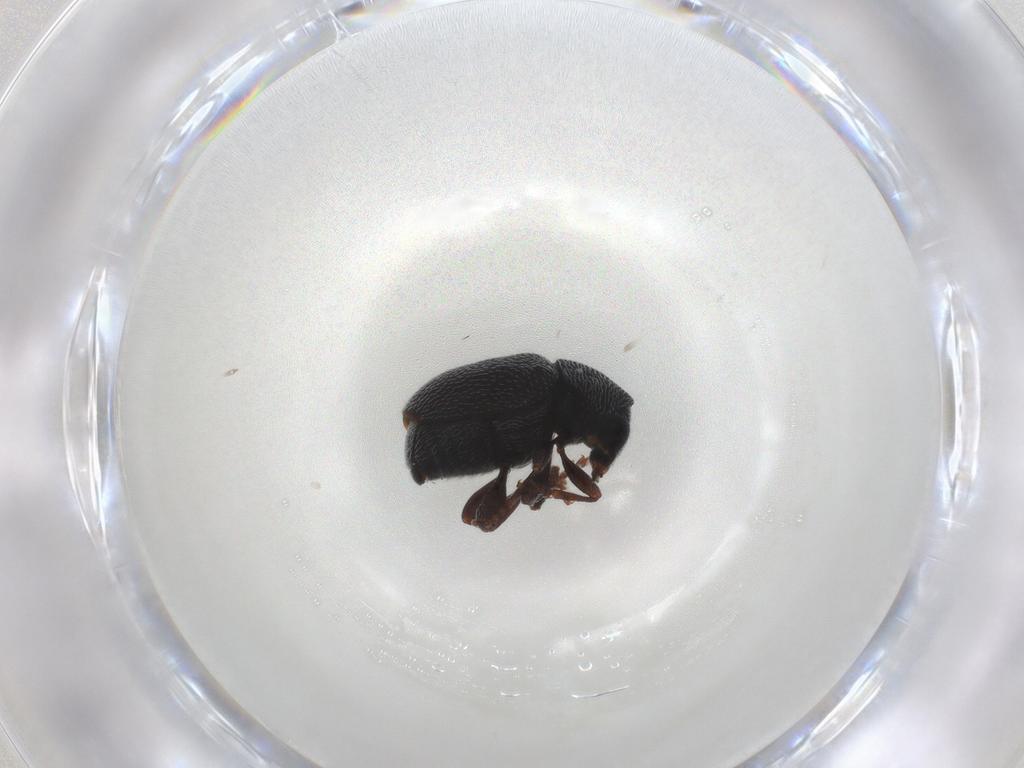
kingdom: Animalia
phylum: Arthropoda
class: Insecta
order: Coleoptera
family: Anthribidae
